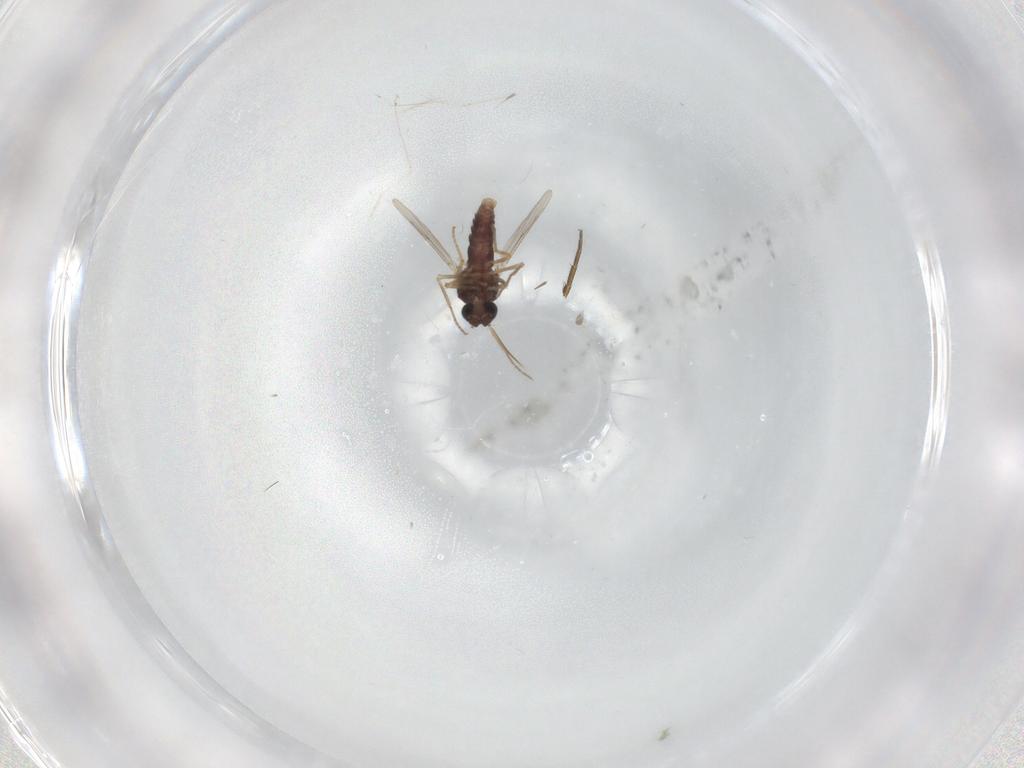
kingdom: Animalia
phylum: Arthropoda
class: Insecta
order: Diptera
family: Ceratopogonidae
